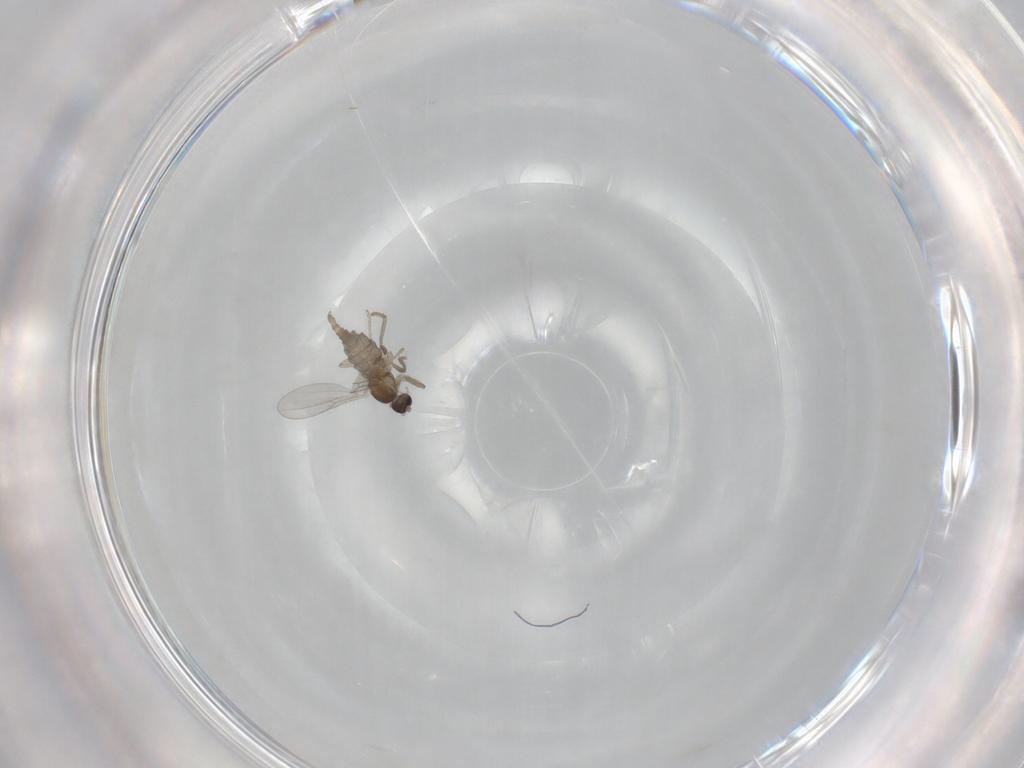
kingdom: Animalia
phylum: Arthropoda
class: Insecta
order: Diptera
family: Cecidomyiidae
